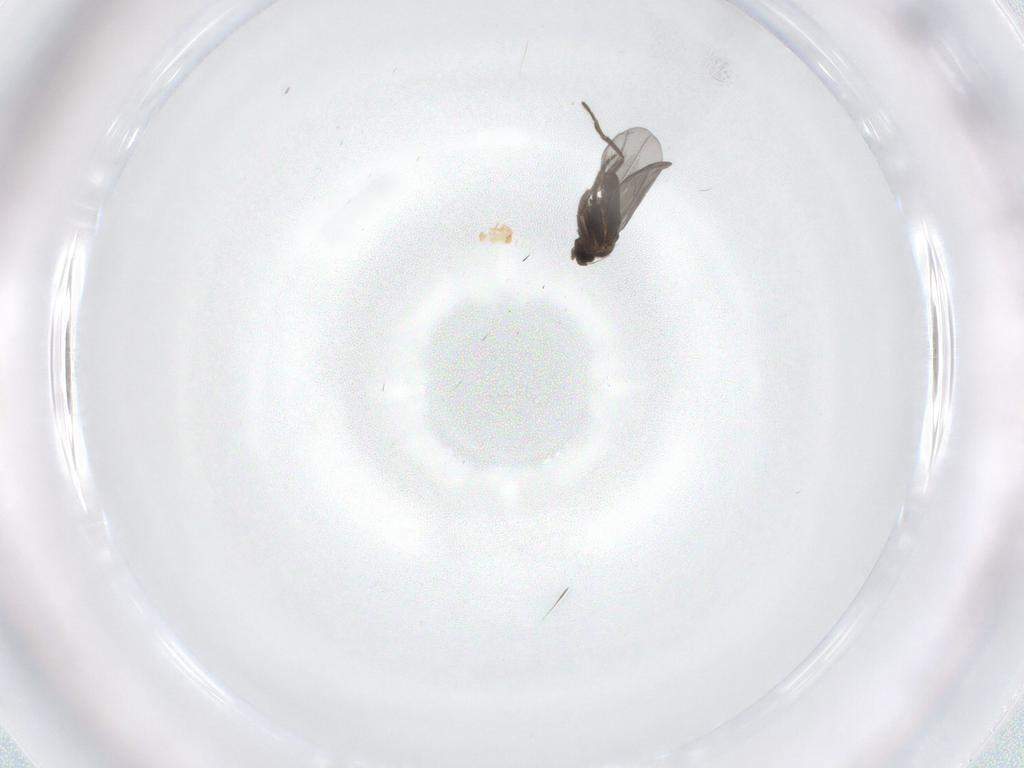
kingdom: Animalia
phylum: Arthropoda
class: Insecta
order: Diptera
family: Phoridae
